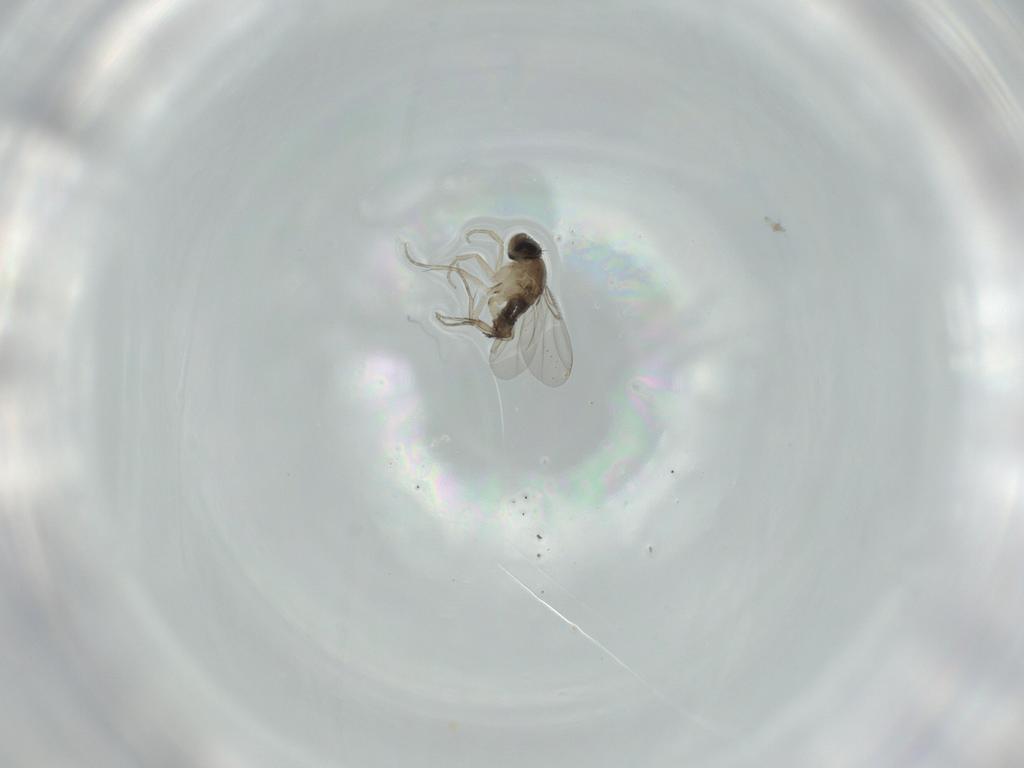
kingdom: Animalia
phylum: Arthropoda
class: Insecta
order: Diptera
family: Phoridae
